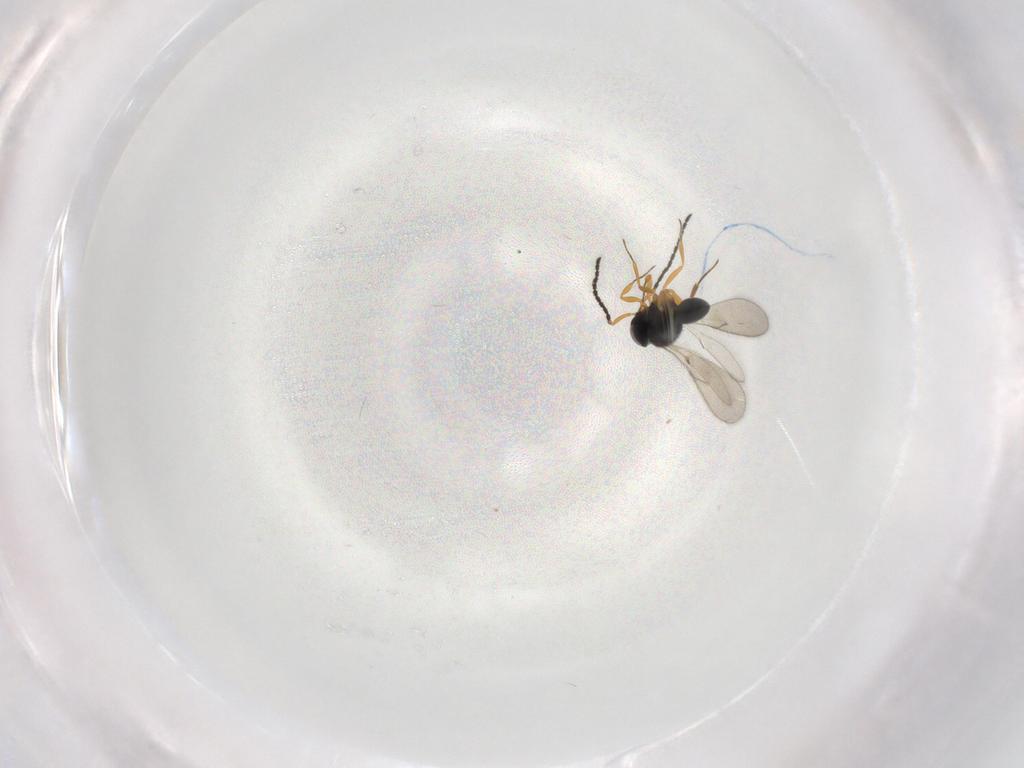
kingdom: Animalia
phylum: Arthropoda
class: Insecta
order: Hymenoptera
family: Scelionidae
